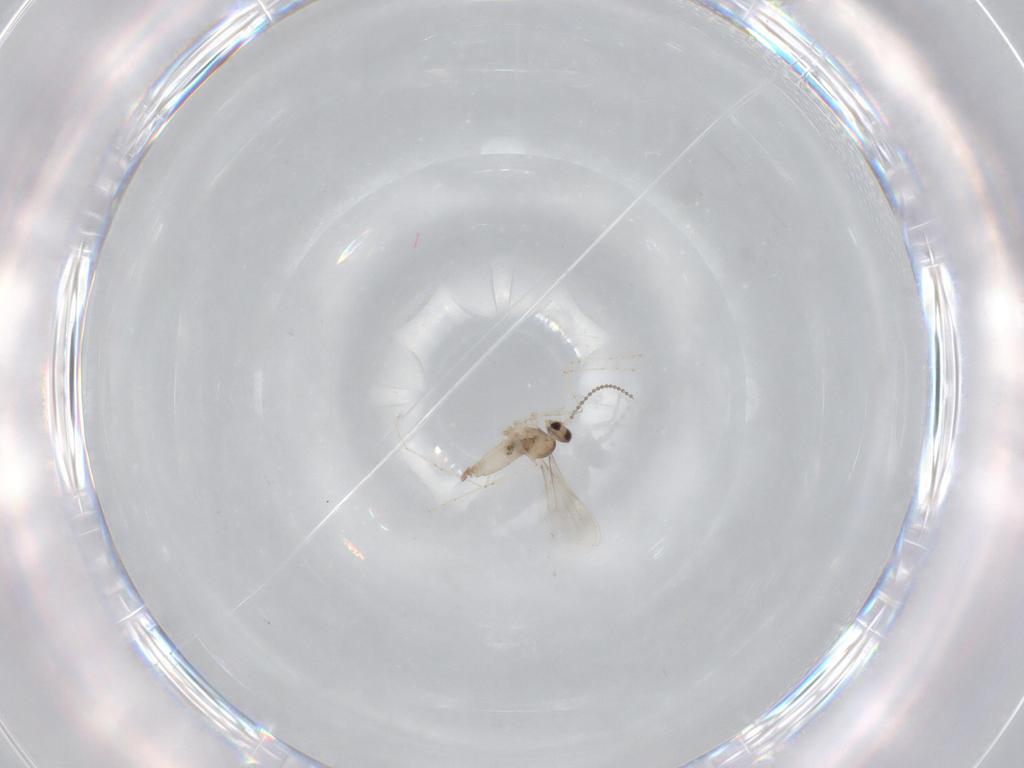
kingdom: Animalia
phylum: Arthropoda
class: Insecta
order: Diptera
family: Cecidomyiidae
